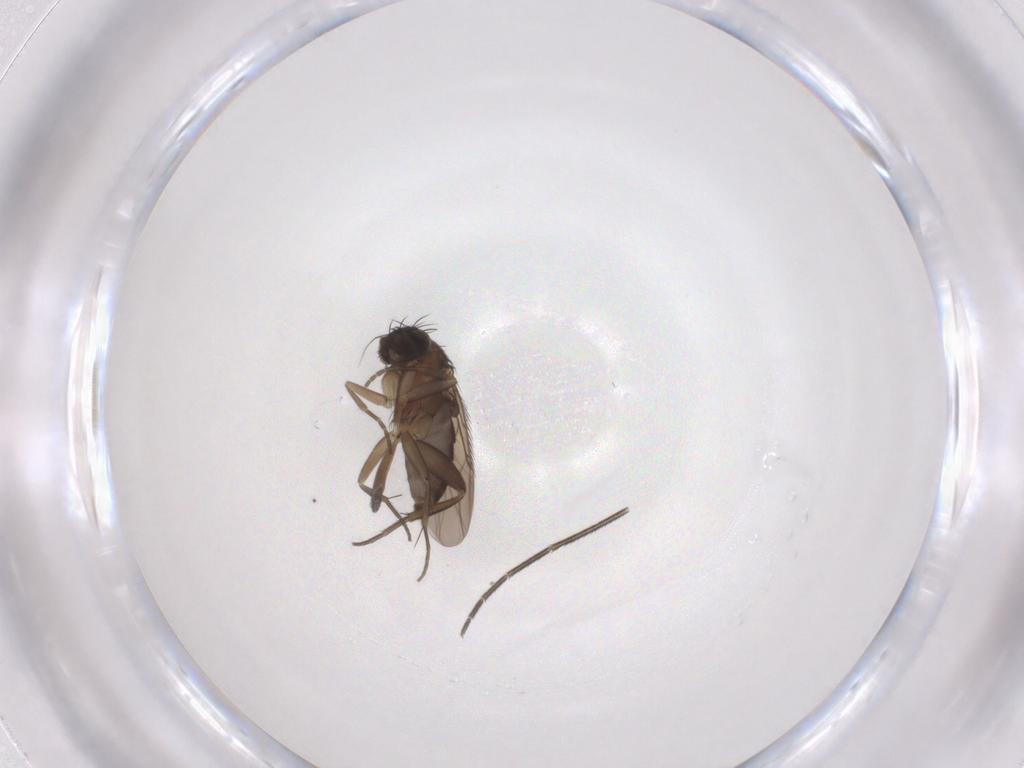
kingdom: Animalia
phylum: Arthropoda
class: Insecta
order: Diptera
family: Phoridae
